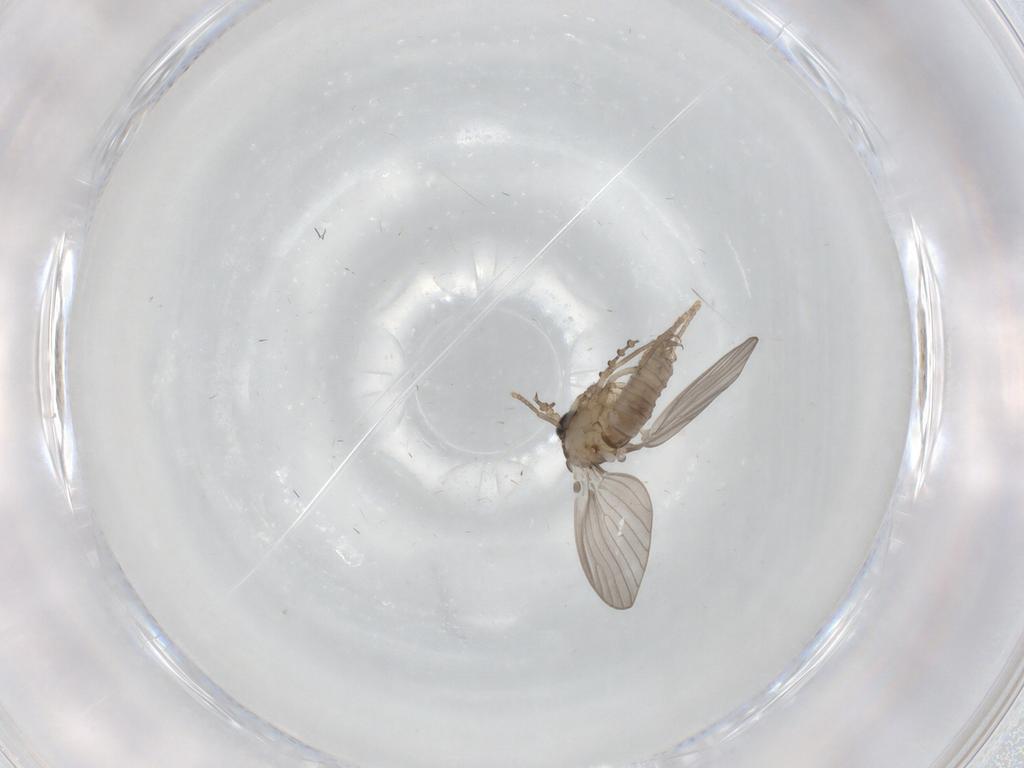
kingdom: Animalia
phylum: Arthropoda
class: Insecta
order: Diptera
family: Psychodidae
